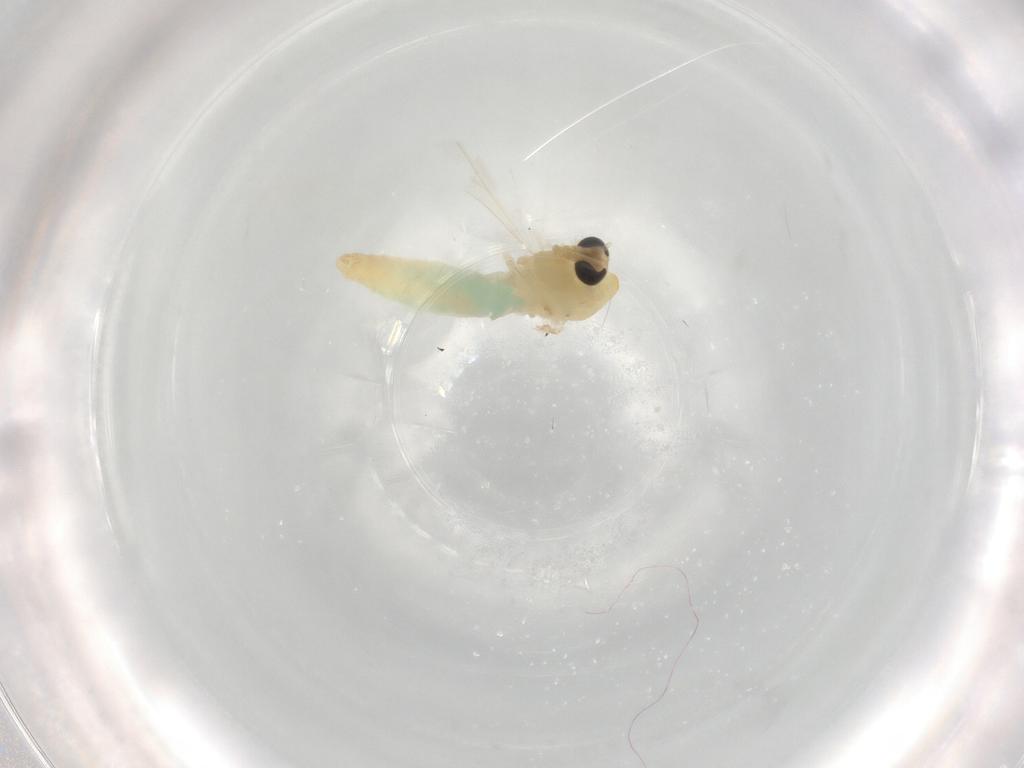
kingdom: Animalia
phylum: Arthropoda
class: Insecta
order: Diptera
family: Chironomidae
